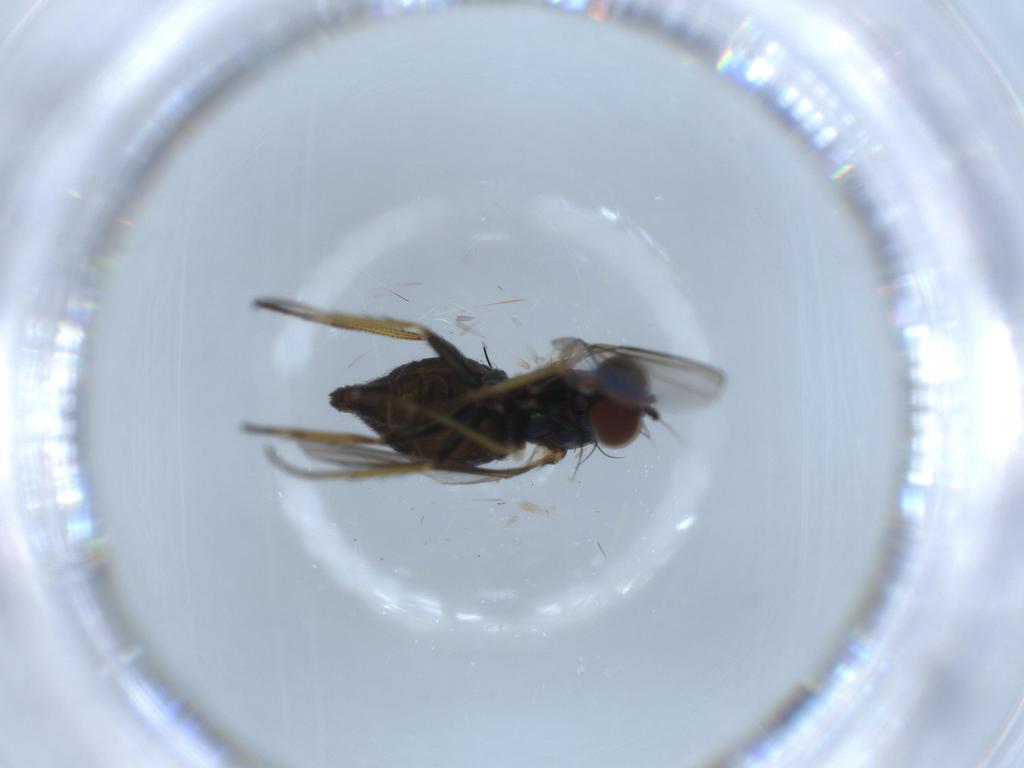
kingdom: Animalia
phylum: Arthropoda
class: Insecta
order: Diptera
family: Dolichopodidae
